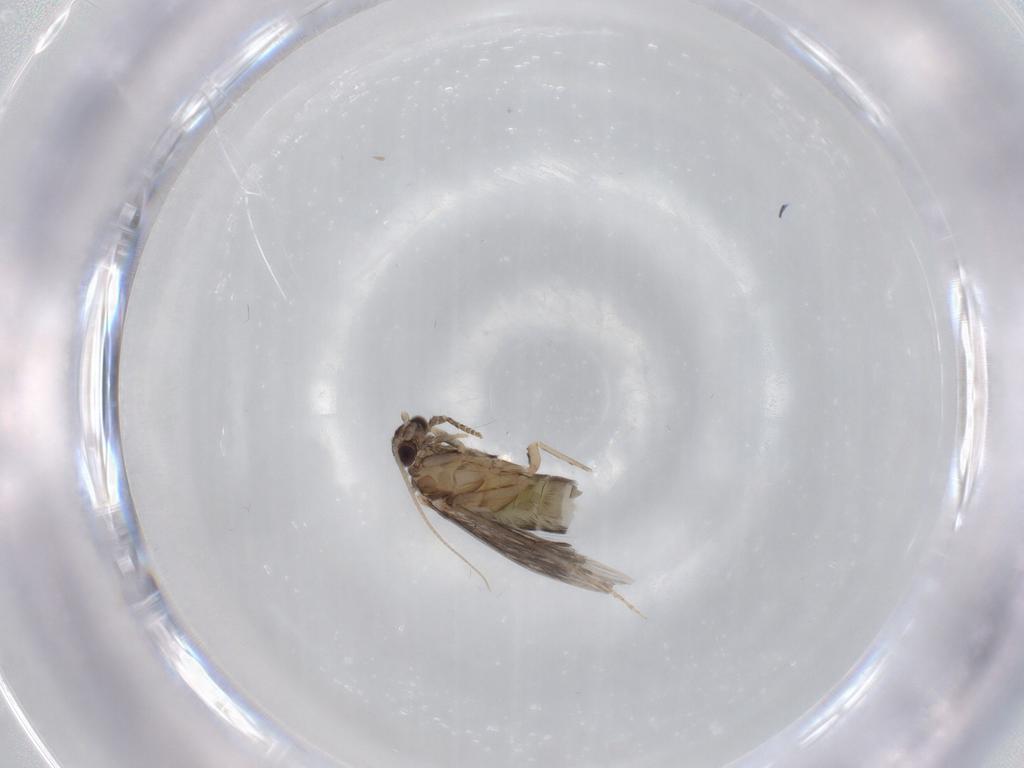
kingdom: Animalia
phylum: Arthropoda
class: Insecta
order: Trichoptera
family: Hydroptilidae
